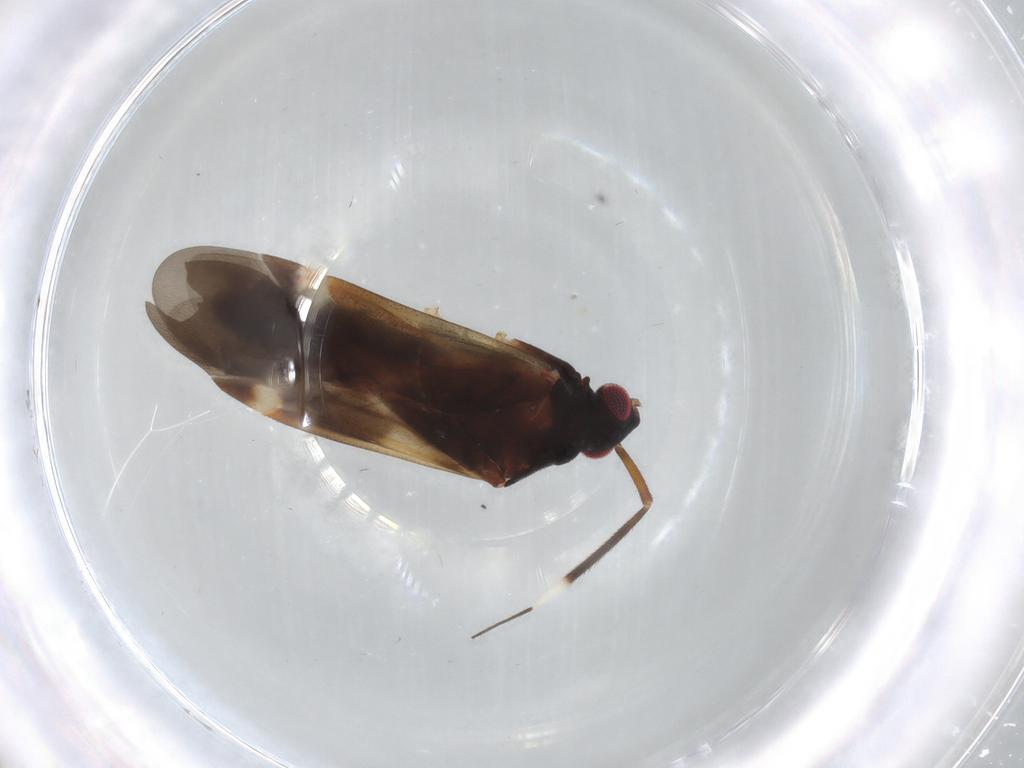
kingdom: Animalia
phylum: Arthropoda
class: Insecta
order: Hemiptera
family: Miridae
